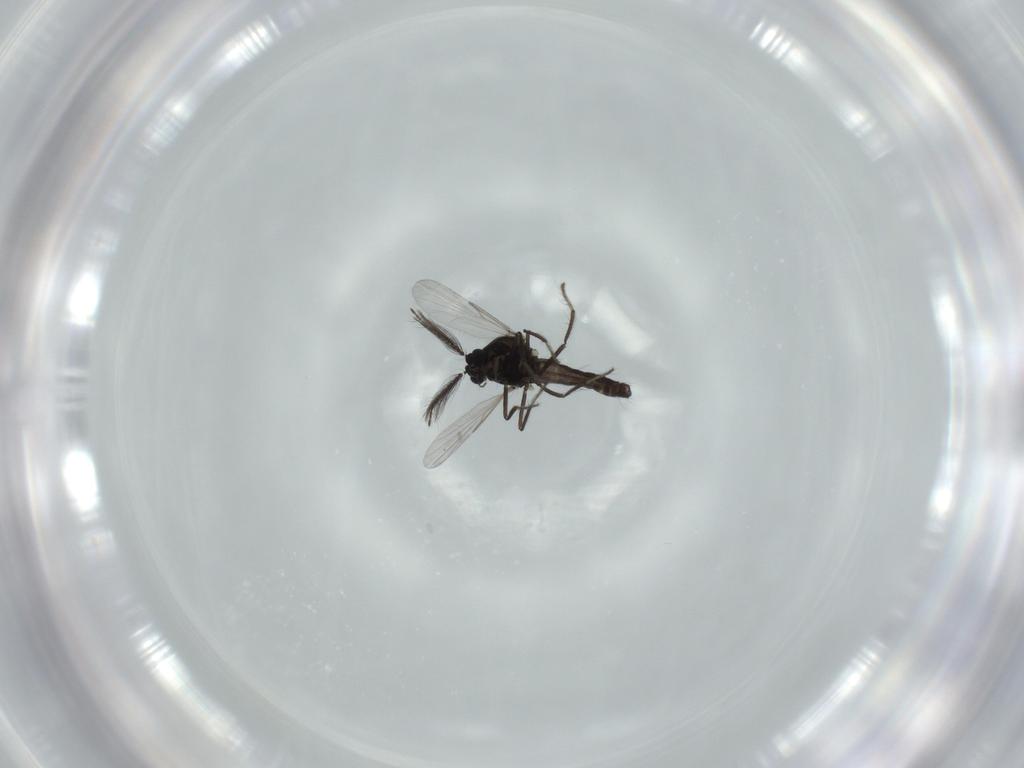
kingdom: Animalia
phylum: Arthropoda
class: Insecta
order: Diptera
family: Ceratopogonidae
